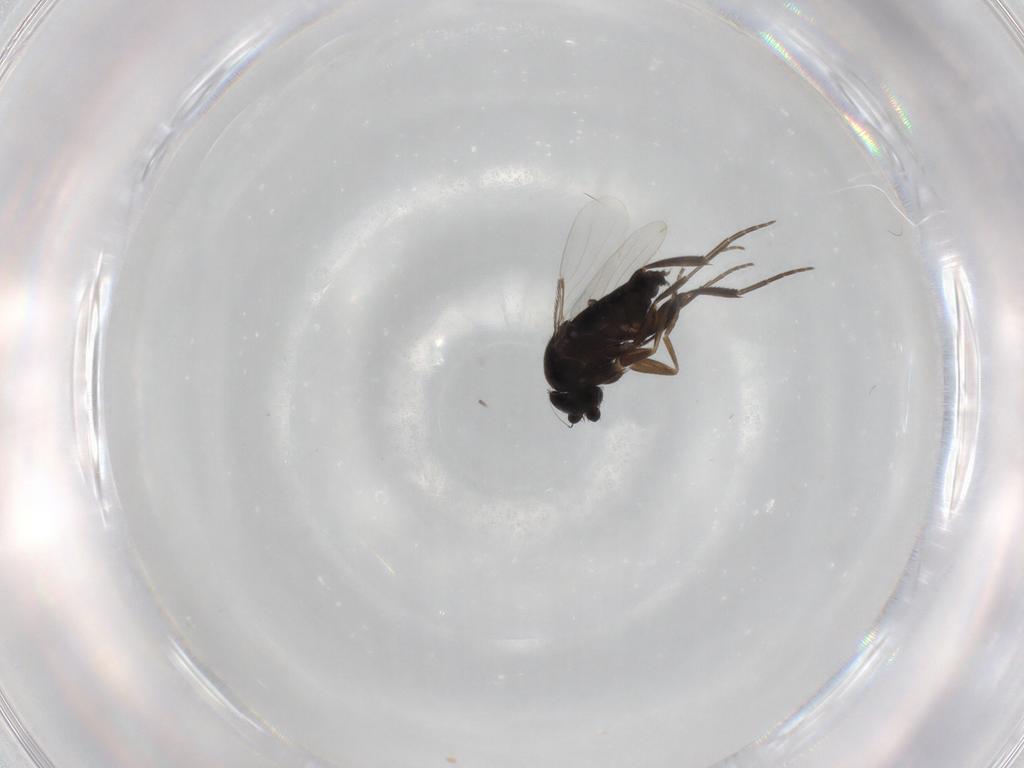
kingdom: Animalia
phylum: Arthropoda
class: Insecta
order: Diptera
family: Phoridae
